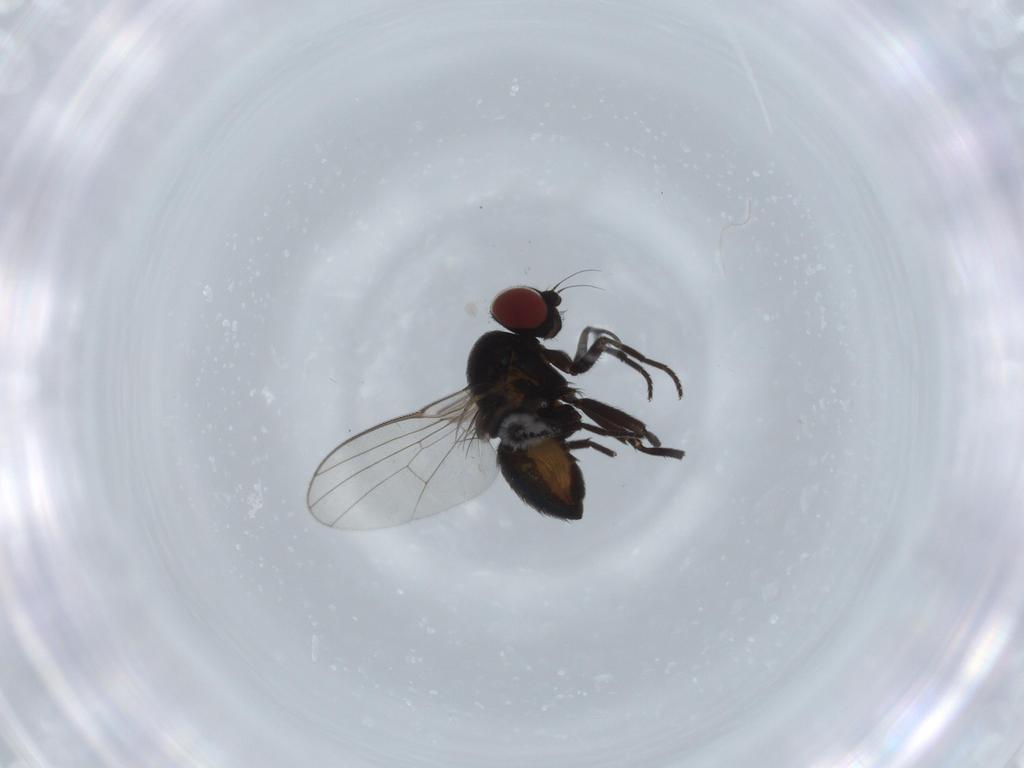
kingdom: Animalia
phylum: Arthropoda
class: Insecta
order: Diptera
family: Agromyzidae
